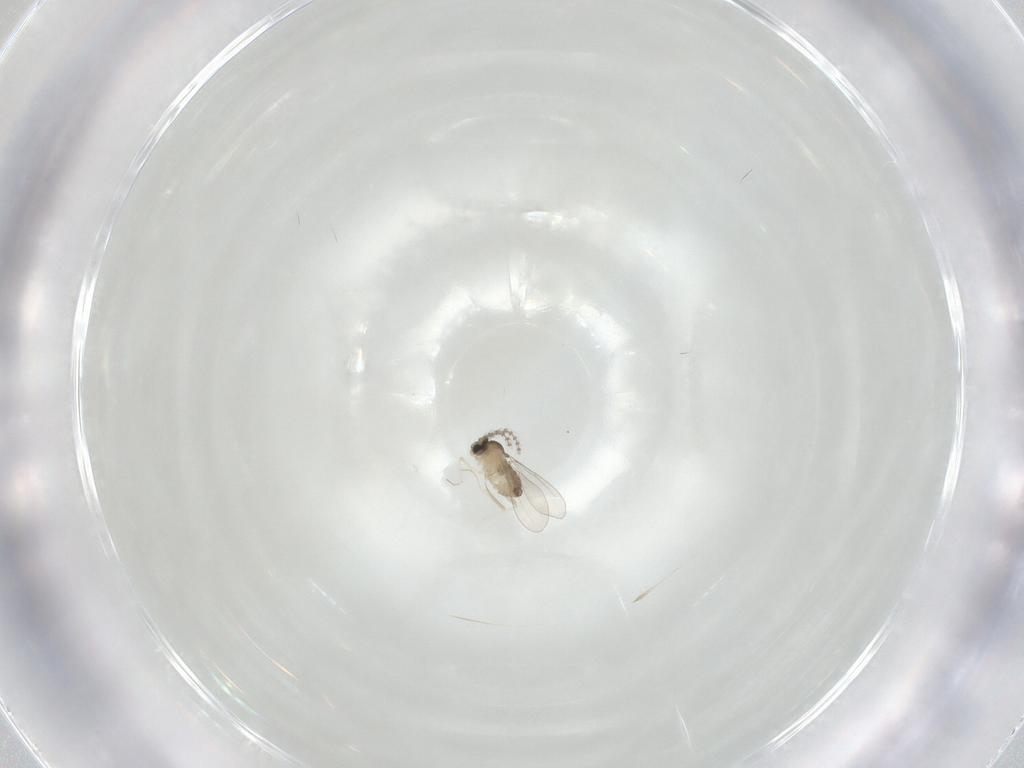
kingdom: Animalia
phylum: Arthropoda
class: Insecta
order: Diptera
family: Cecidomyiidae
